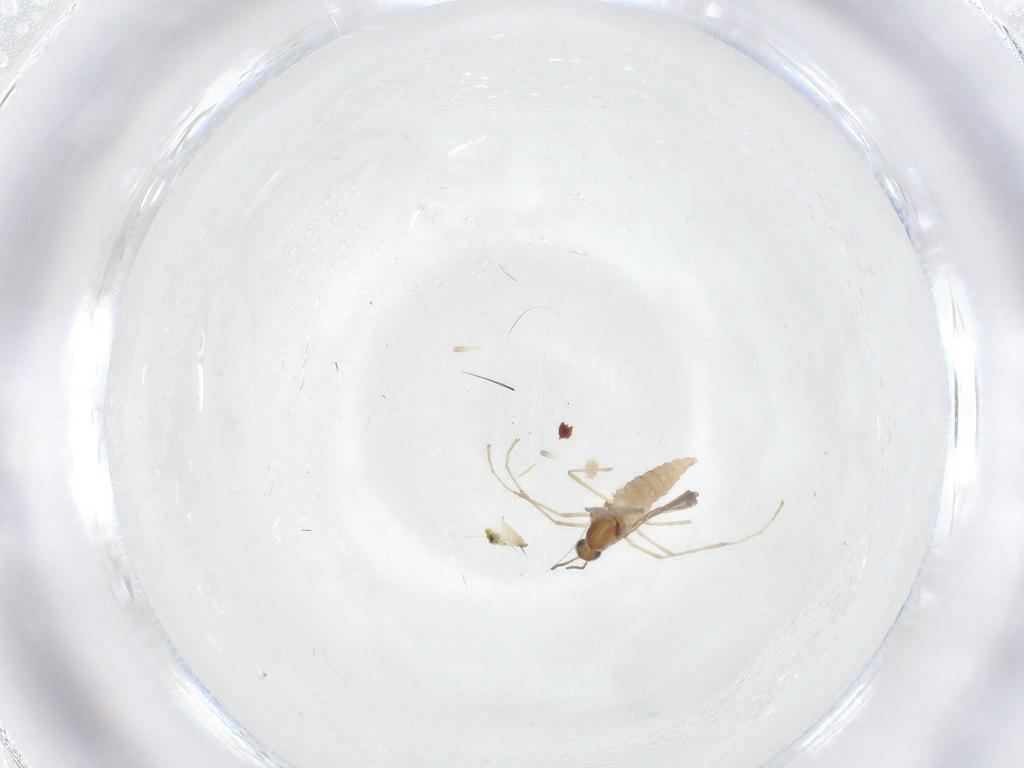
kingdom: Animalia
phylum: Arthropoda
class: Insecta
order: Diptera
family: Cecidomyiidae
